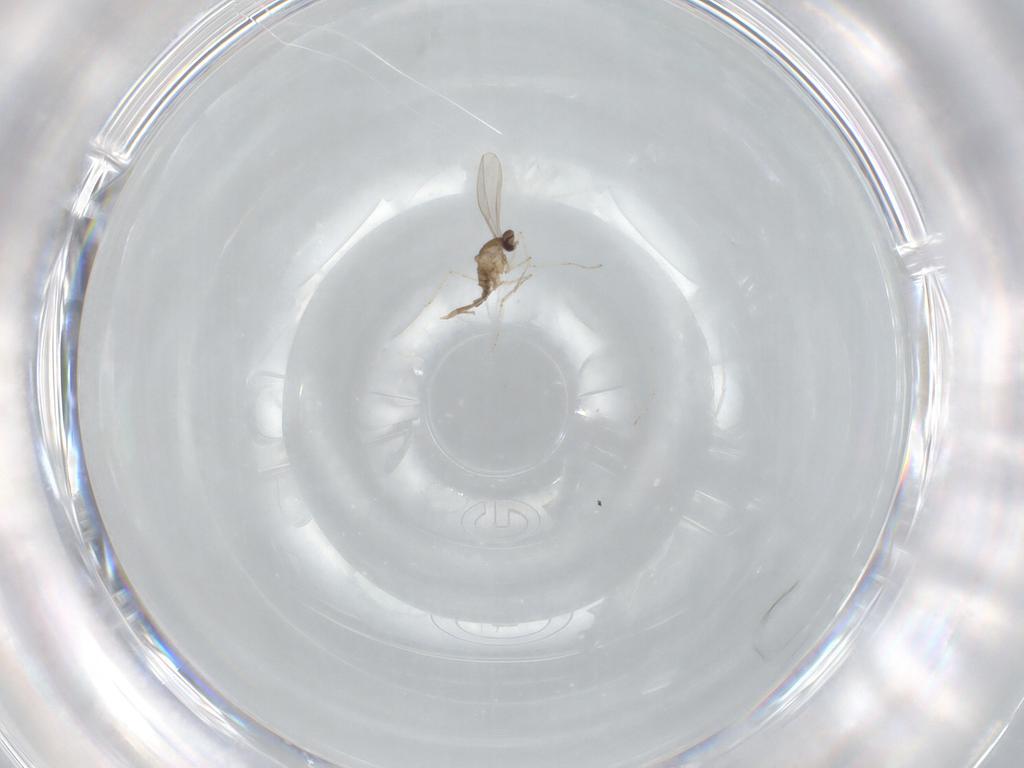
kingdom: Animalia
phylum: Arthropoda
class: Insecta
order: Diptera
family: Cecidomyiidae
